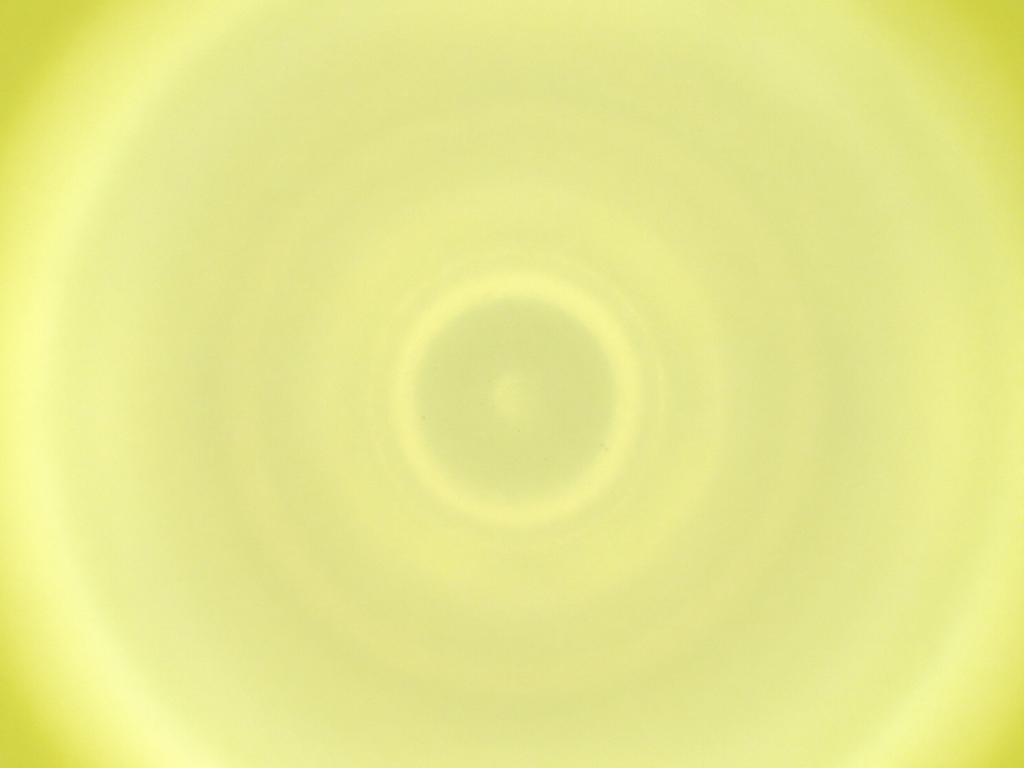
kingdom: Animalia
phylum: Arthropoda
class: Insecta
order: Diptera
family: Cecidomyiidae
